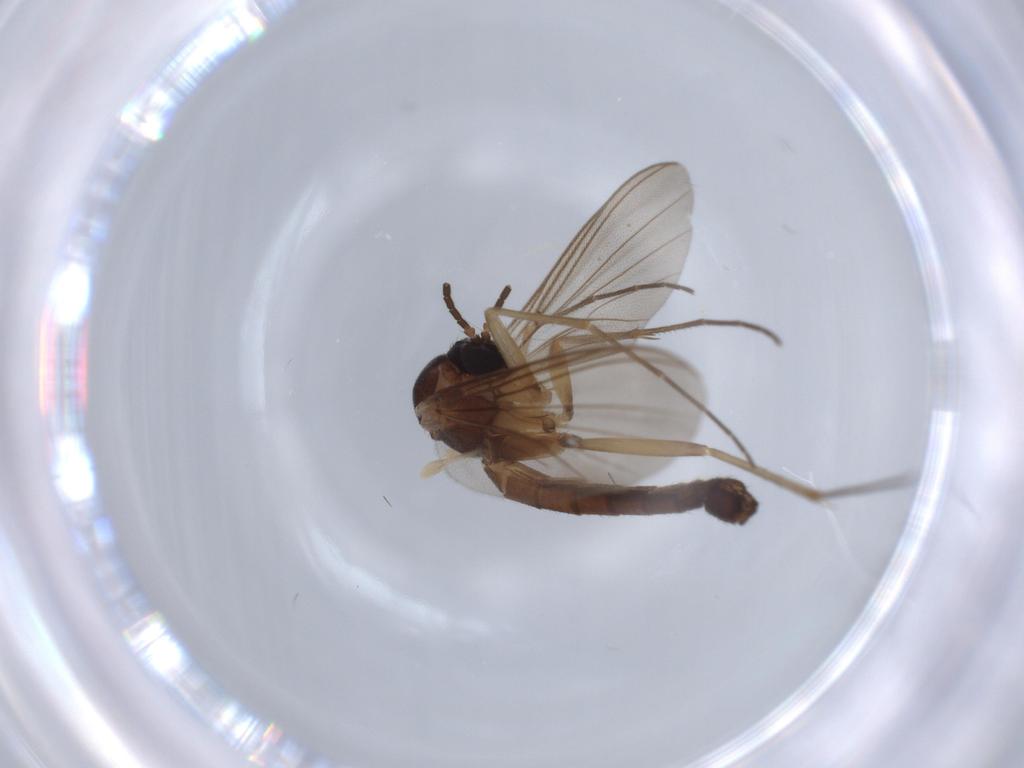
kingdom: Animalia
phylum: Arthropoda
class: Insecta
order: Diptera
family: Mycetophilidae
